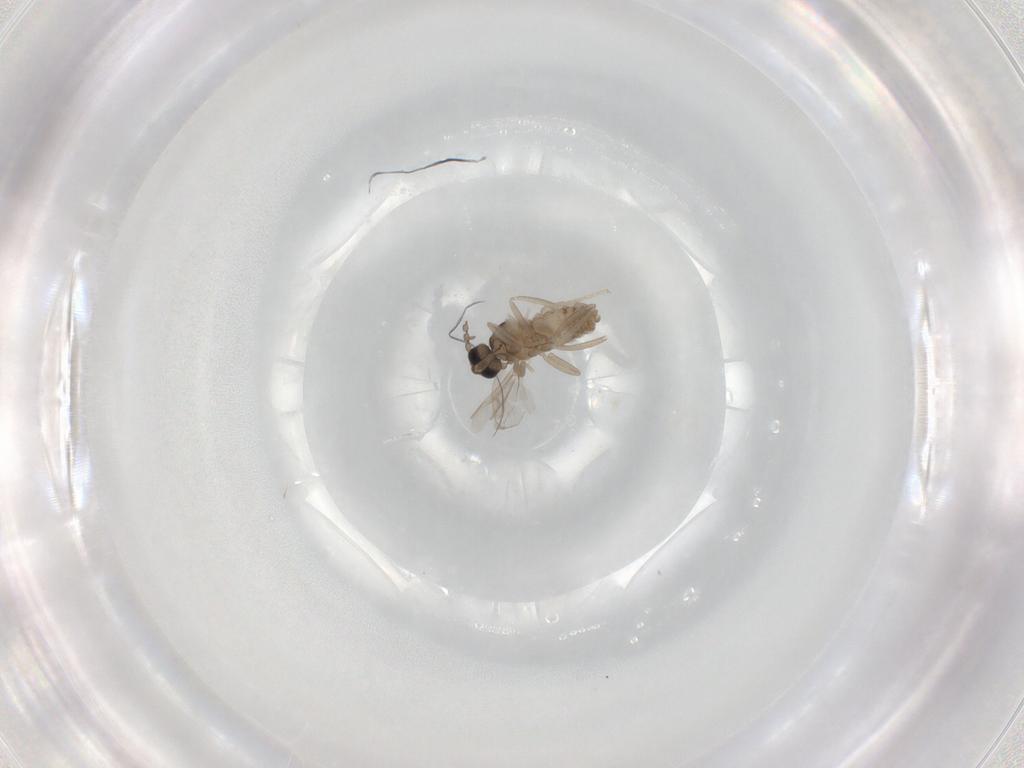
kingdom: Animalia
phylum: Arthropoda
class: Insecta
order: Diptera
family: Cecidomyiidae
